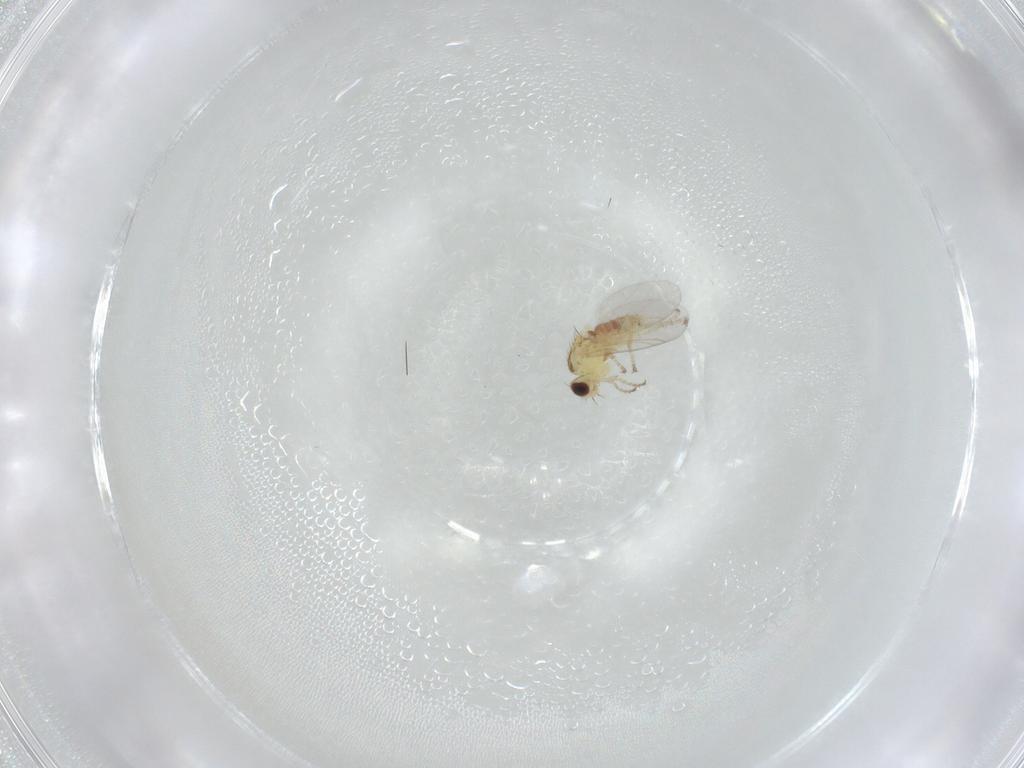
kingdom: Animalia
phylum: Arthropoda
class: Insecta
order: Diptera
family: Agromyzidae
